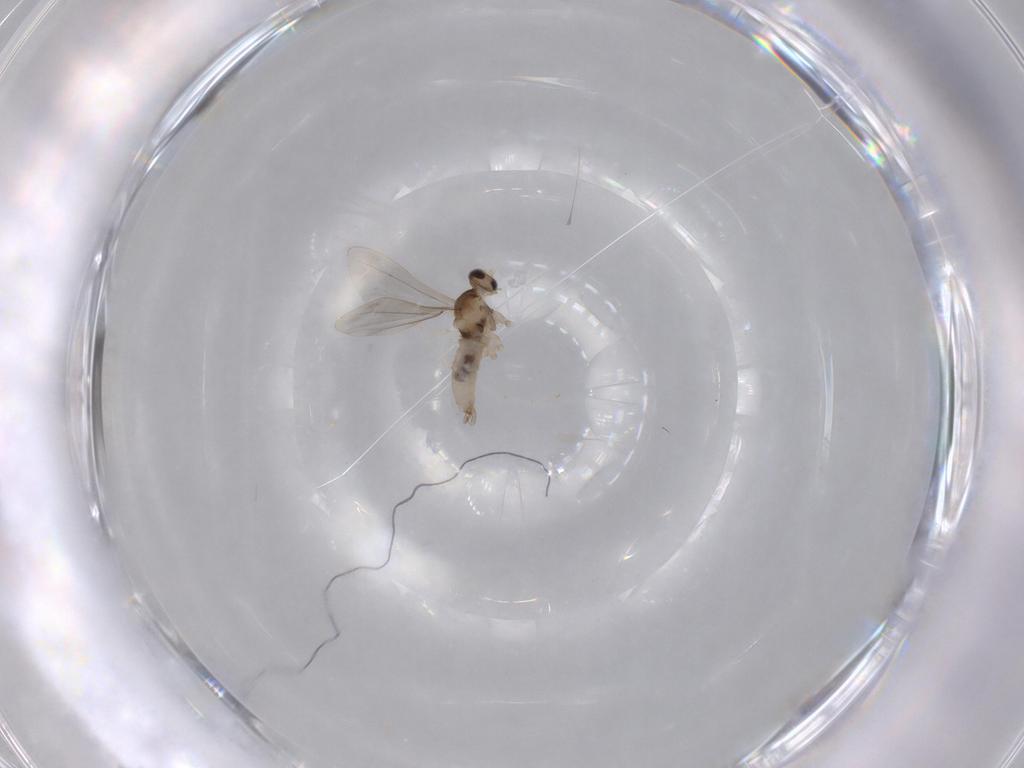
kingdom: Animalia
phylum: Arthropoda
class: Insecta
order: Diptera
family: Cecidomyiidae
